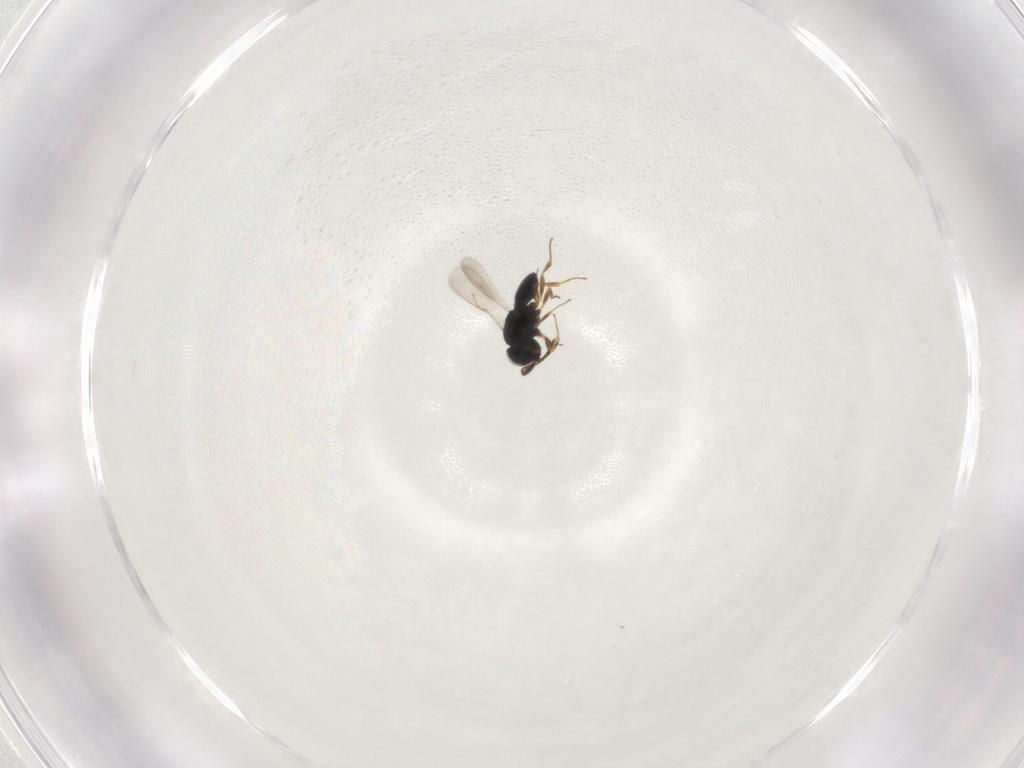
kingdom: Animalia
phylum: Arthropoda
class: Insecta
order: Hymenoptera
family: Scelionidae
